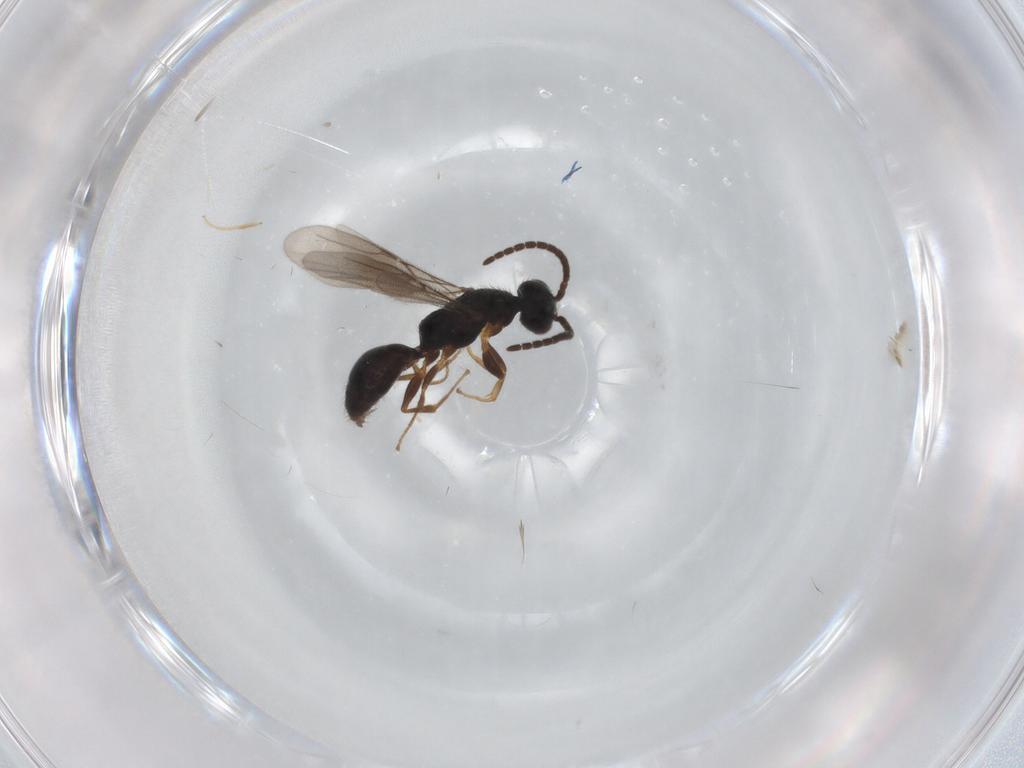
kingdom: Animalia
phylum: Arthropoda
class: Insecta
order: Hymenoptera
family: Bethylidae
